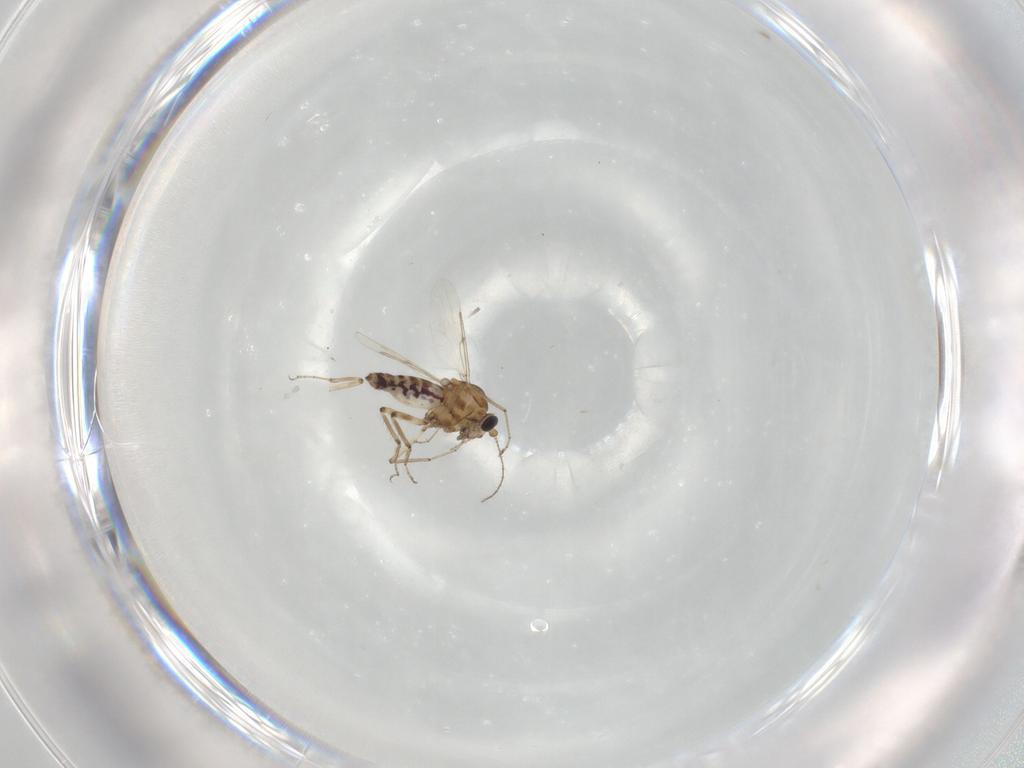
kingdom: Animalia
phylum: Arthropoda
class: Insecta
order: Diptera
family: Ceratopogonidae
